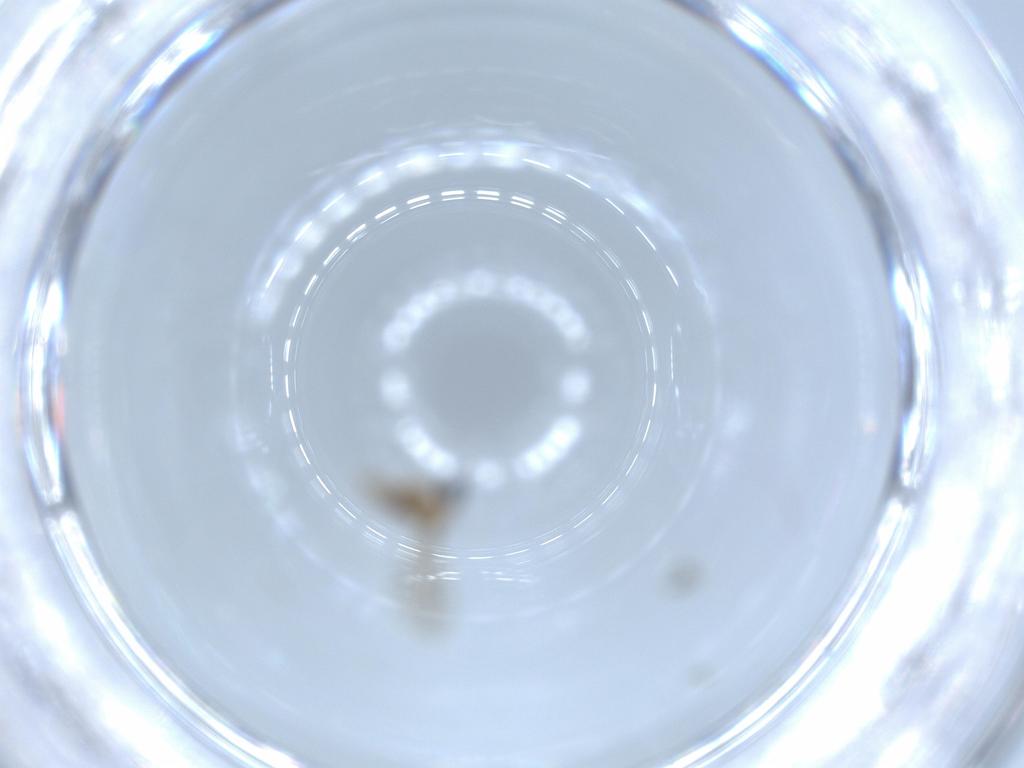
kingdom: Animalia
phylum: Arthropoda
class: Insecta
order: Diptera
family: Cecidomyiidae
